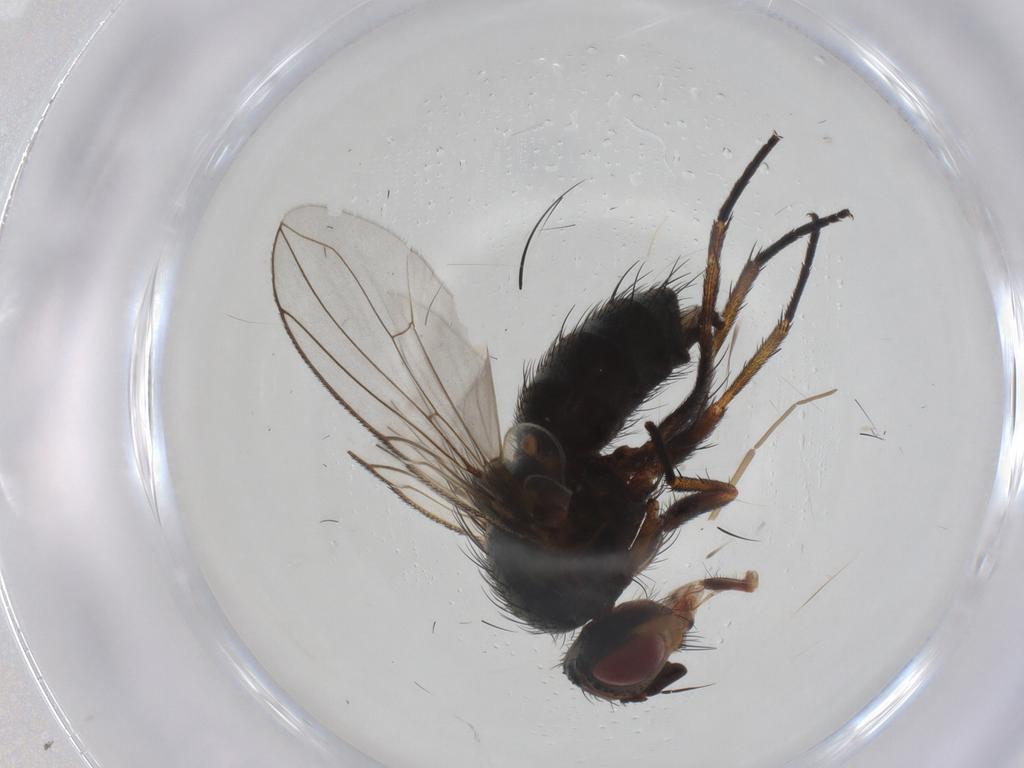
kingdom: Animalia
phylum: Arthropoda
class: Insecta
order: Diptera
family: Tachinidae
